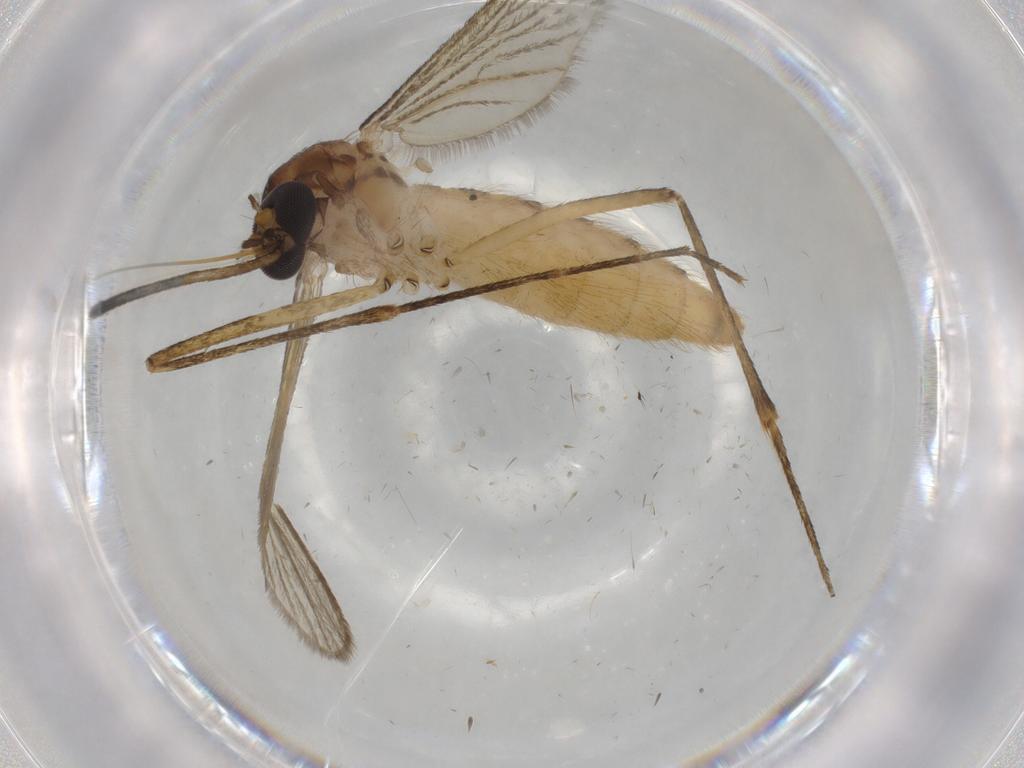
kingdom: Animalia
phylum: Arthropoda
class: Insecta
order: Diptera
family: Culicidae
